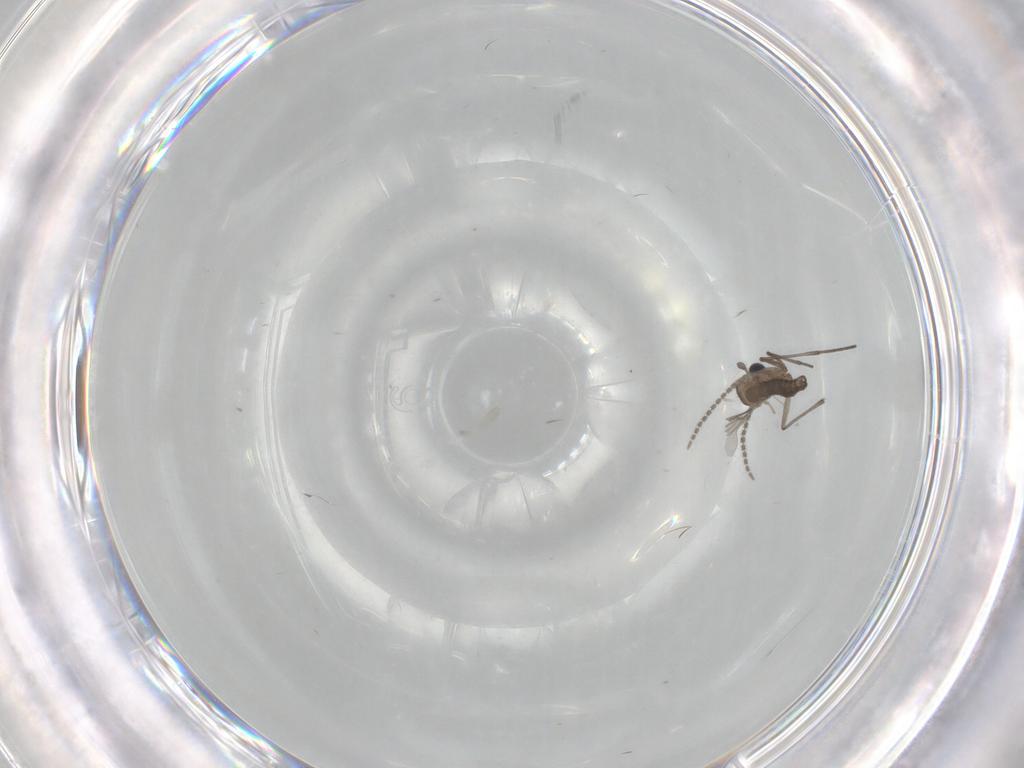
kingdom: Animalia
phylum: Arthropoda
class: Insecta
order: Diptera
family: Cecidomyiidae
